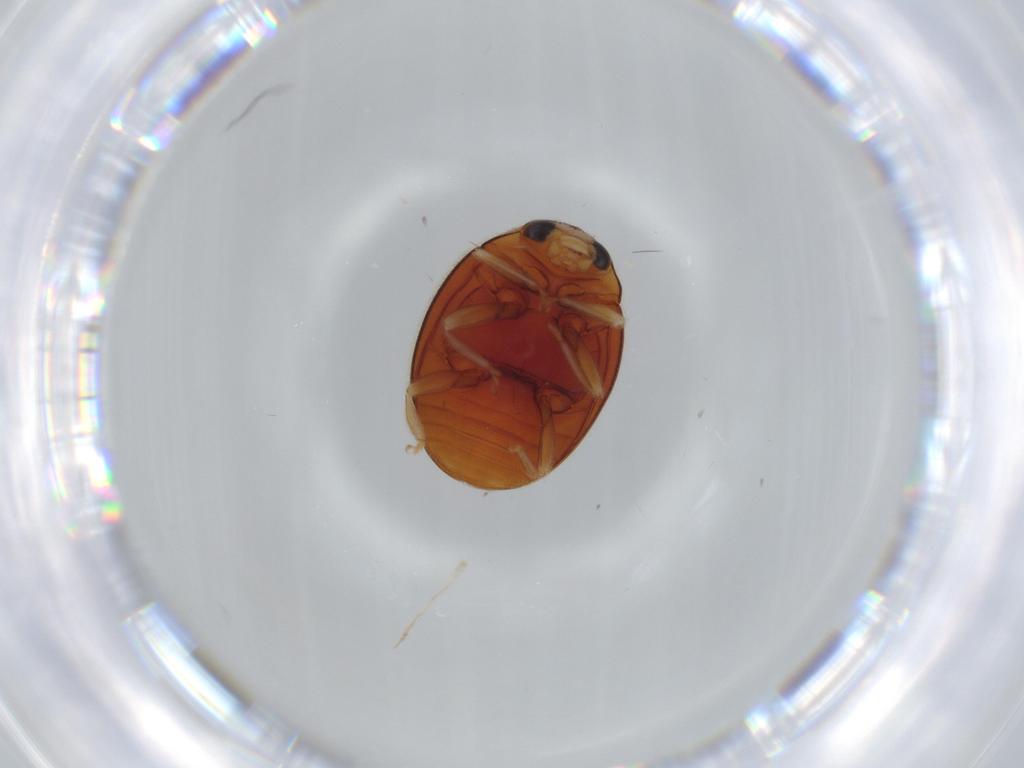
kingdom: Animalia
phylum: Arthropoda
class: Insecta
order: Coleoptera
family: Coccinellidae
